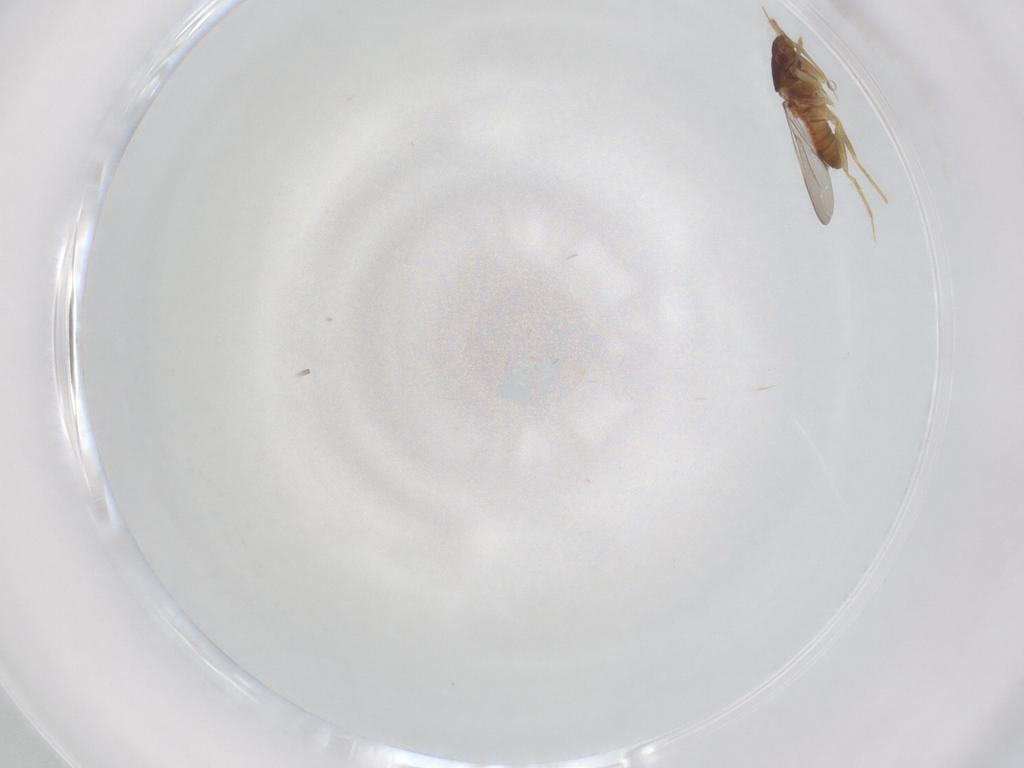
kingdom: Animalia
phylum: Arthropoda
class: Insecta
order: Hemiptera
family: Ceratocombidae
